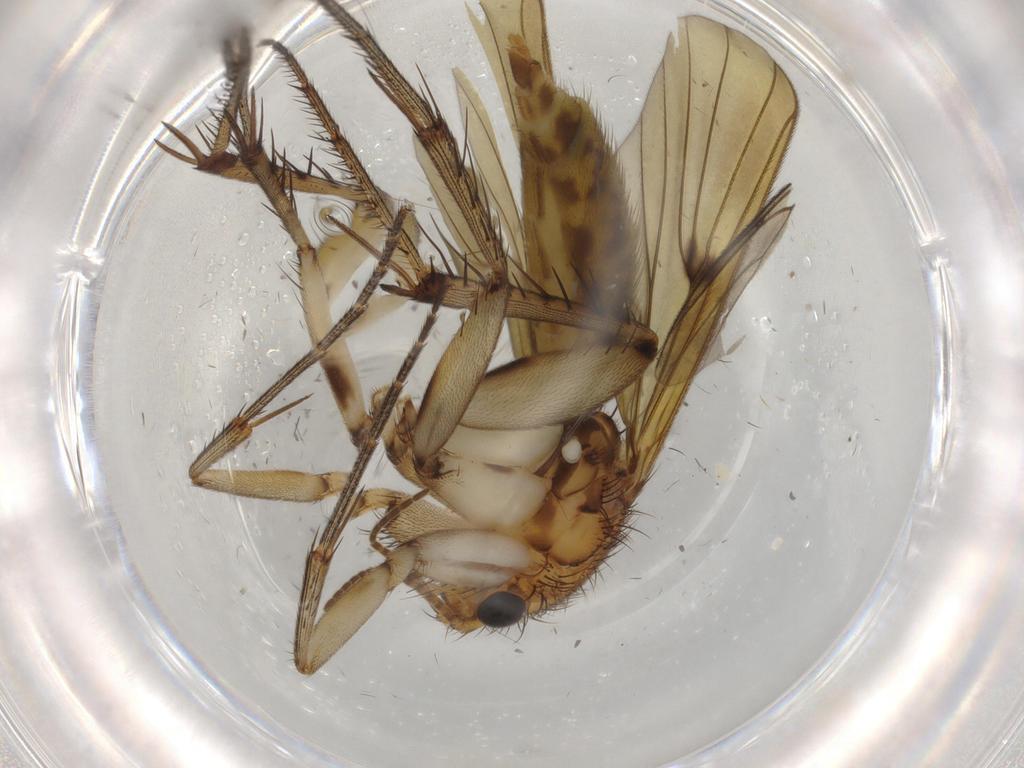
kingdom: Animalia
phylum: Arthropoda
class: Insecta
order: Diptera
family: Mycetophilidae
